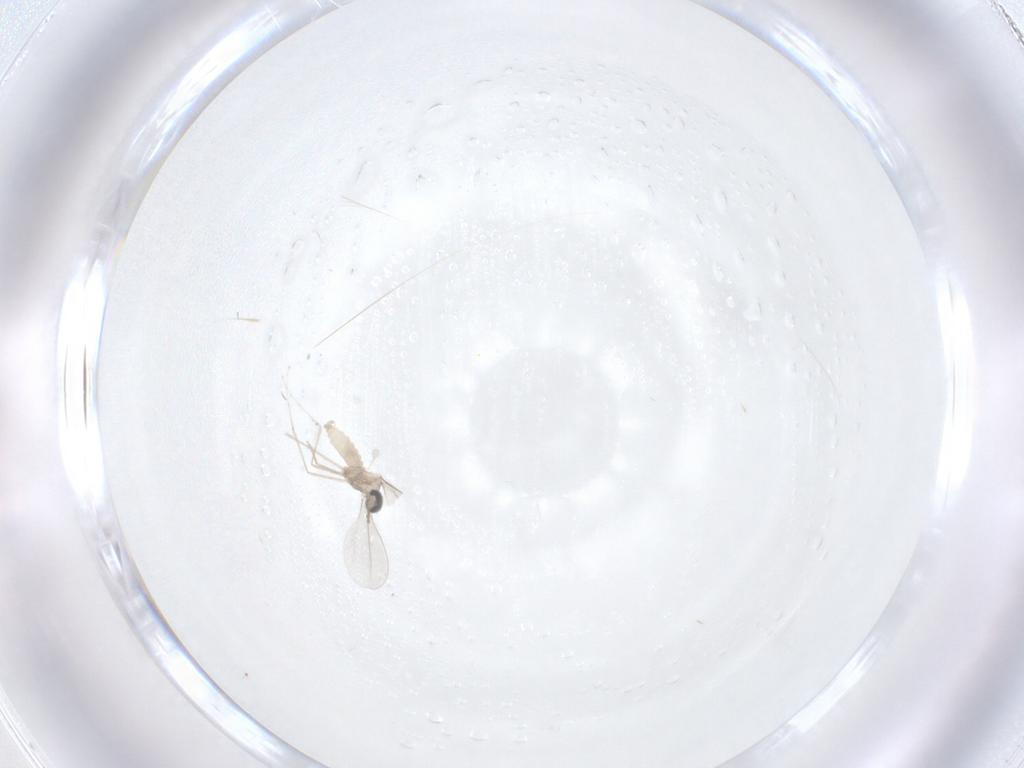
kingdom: Animalia
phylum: Arthropoda
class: Insecta
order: Diptera
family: Cecidomyiidae
